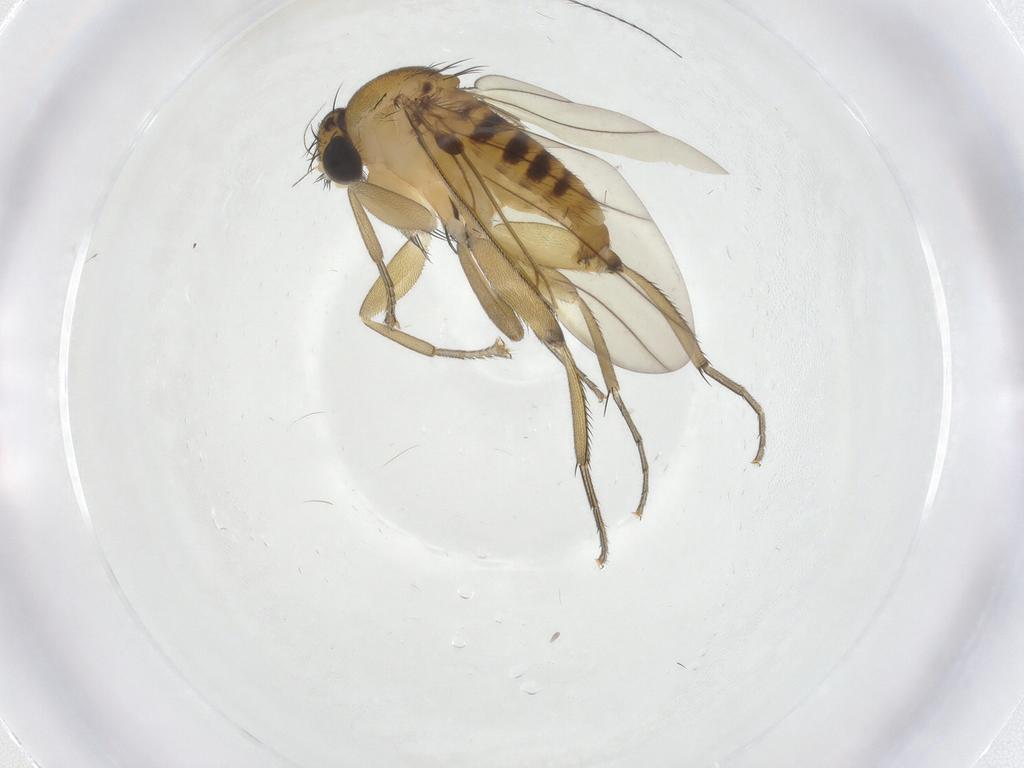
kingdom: Animalia
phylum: Arthropoda
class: Insecta
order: Diptera
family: Phoridae
